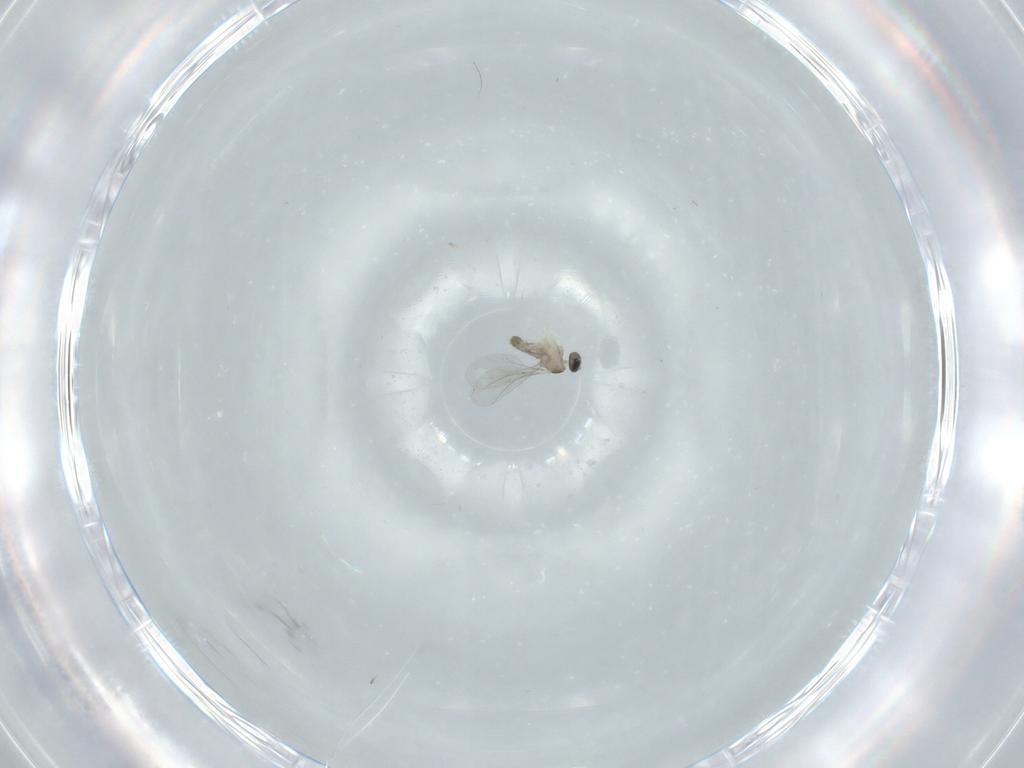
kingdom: Animalia
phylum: Arthropoda
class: Insecta
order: Diptera
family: Cecidomyiidae
